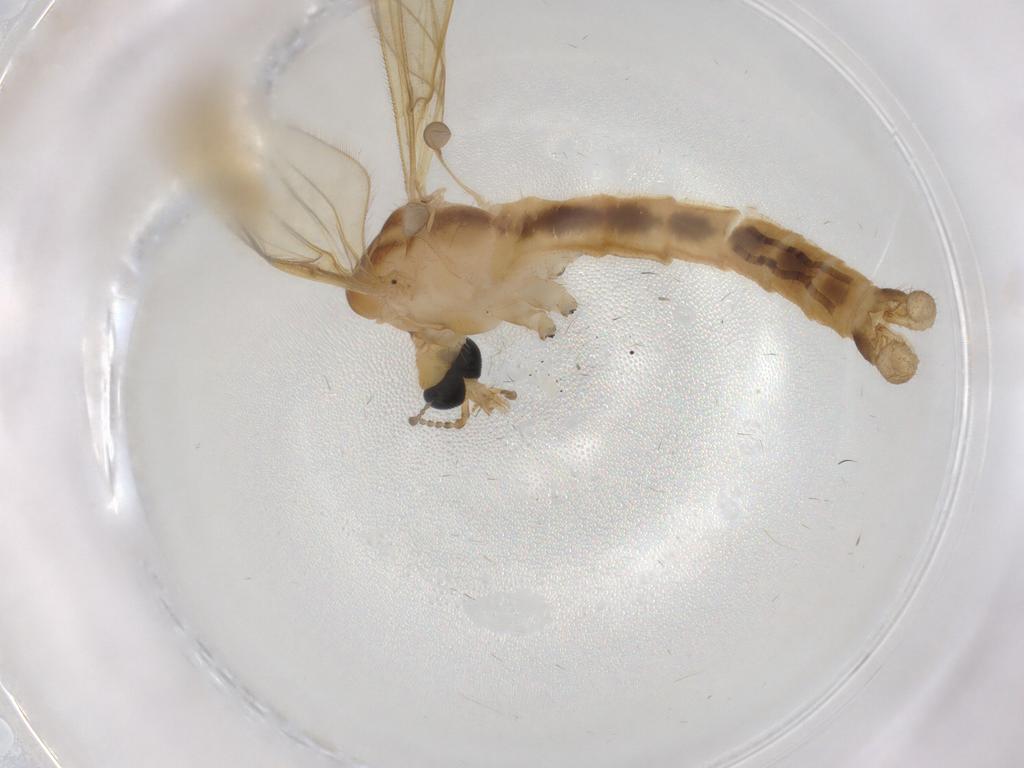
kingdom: Animalia
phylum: Arthropoda
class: Insecta
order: Diptera
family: Mycetophilidae
